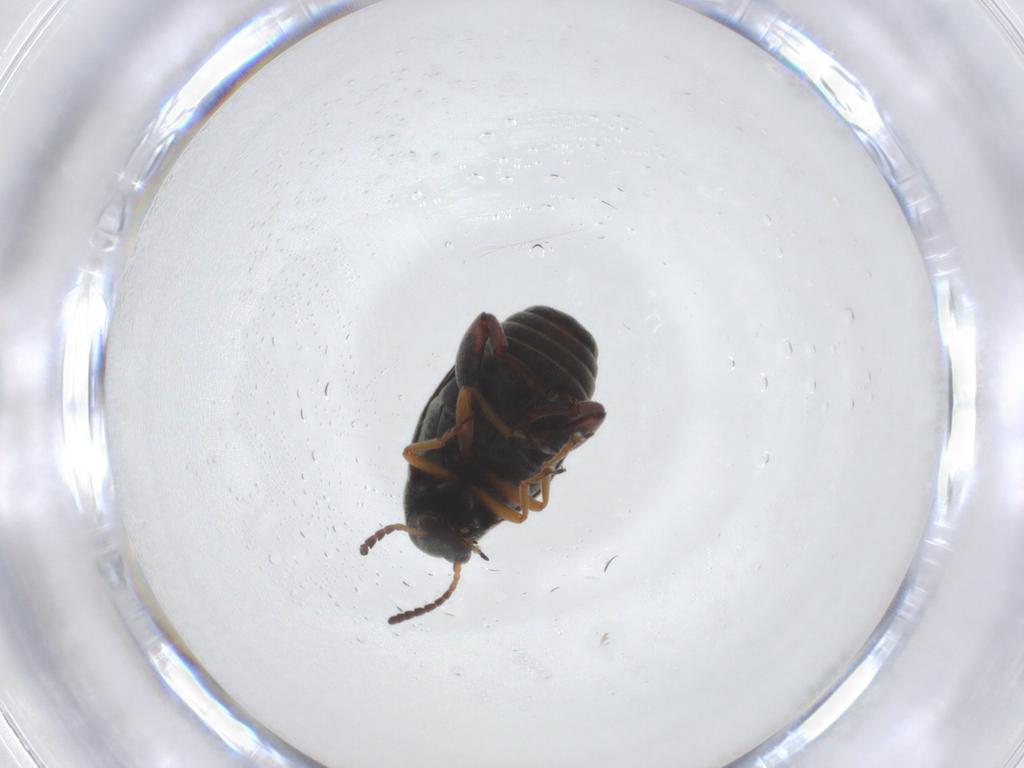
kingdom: Animalia
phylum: Arthropoda
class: Insecta
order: Coleoptera
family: Chrysomelidae
